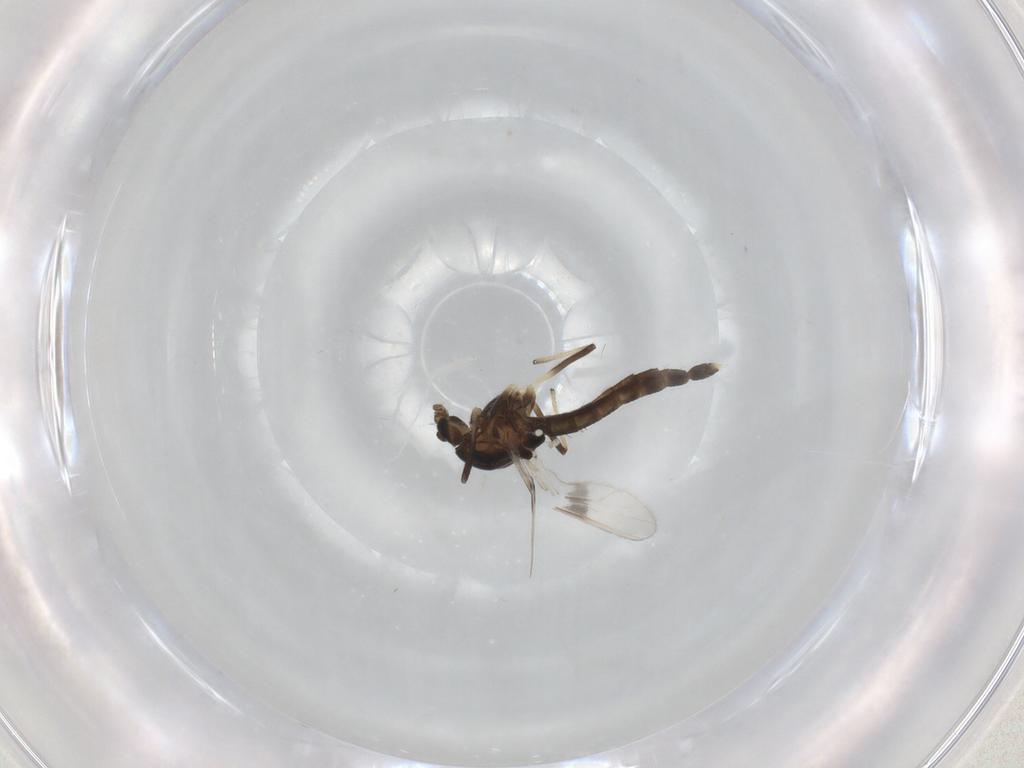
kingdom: Animalia
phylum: Arthropoda
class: Insecta
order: Diptera
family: Chironomidae
